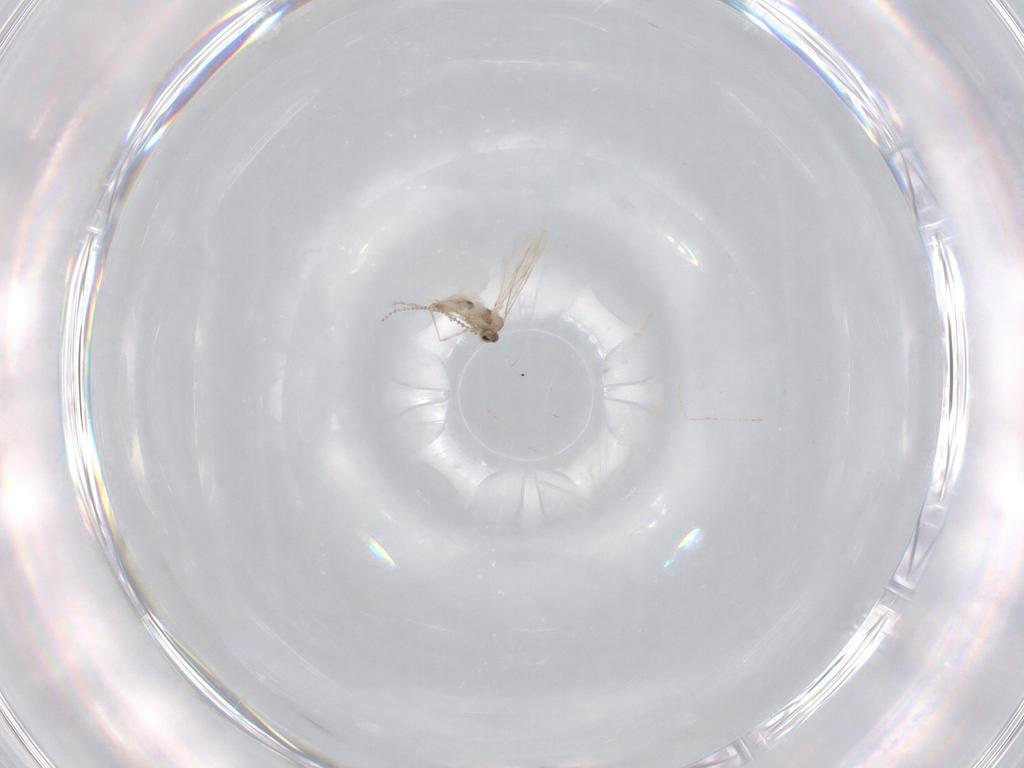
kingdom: Animalia
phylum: Arthropoda
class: Insecta
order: Diptera
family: Cecidomyiidae
